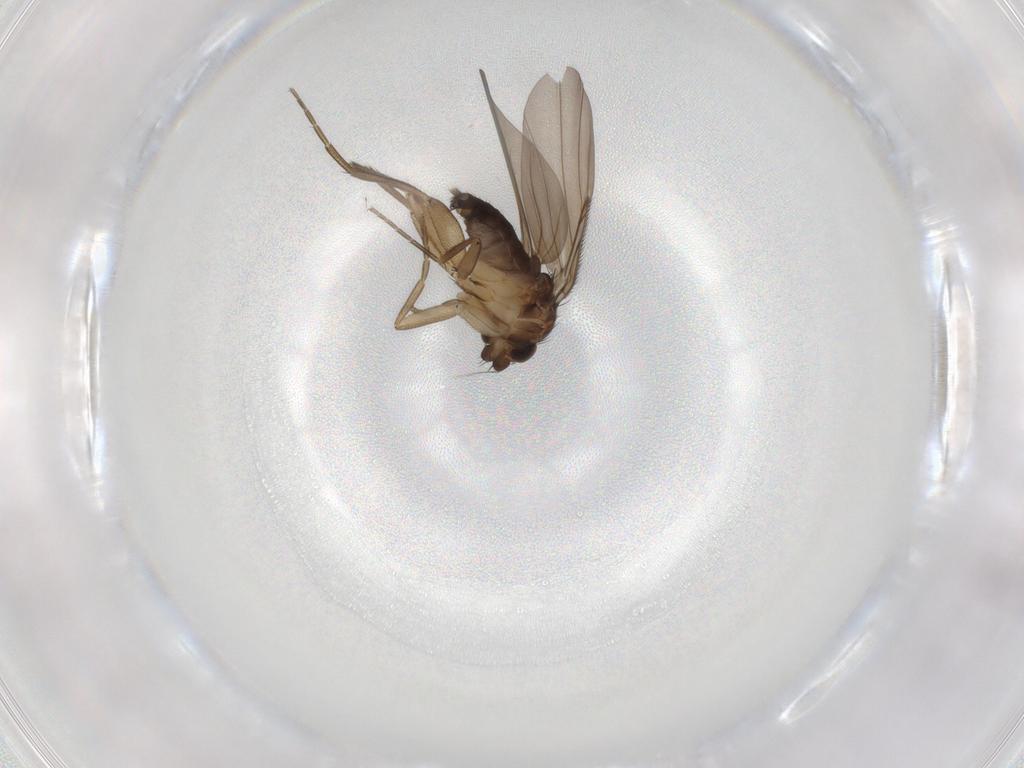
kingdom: Animalia
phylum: Arthropoda
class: Insecta
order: Diptera
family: Phoridae
